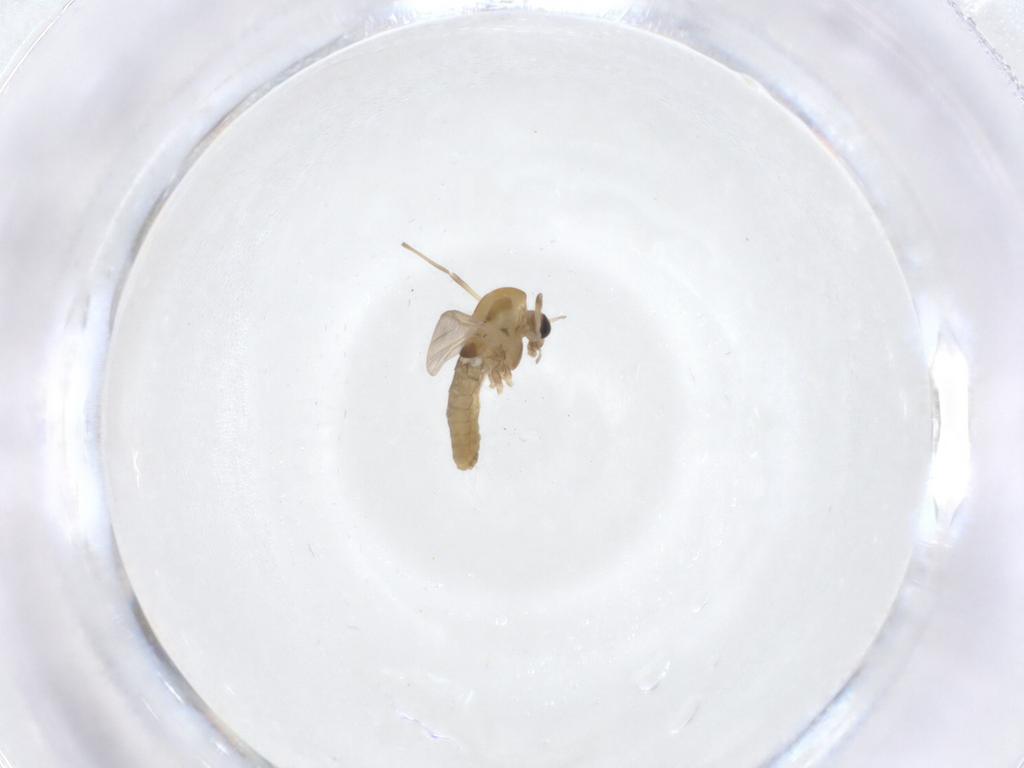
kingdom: Animalia
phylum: Arthropoda
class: Insecta
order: Diptera
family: Chironomidae
